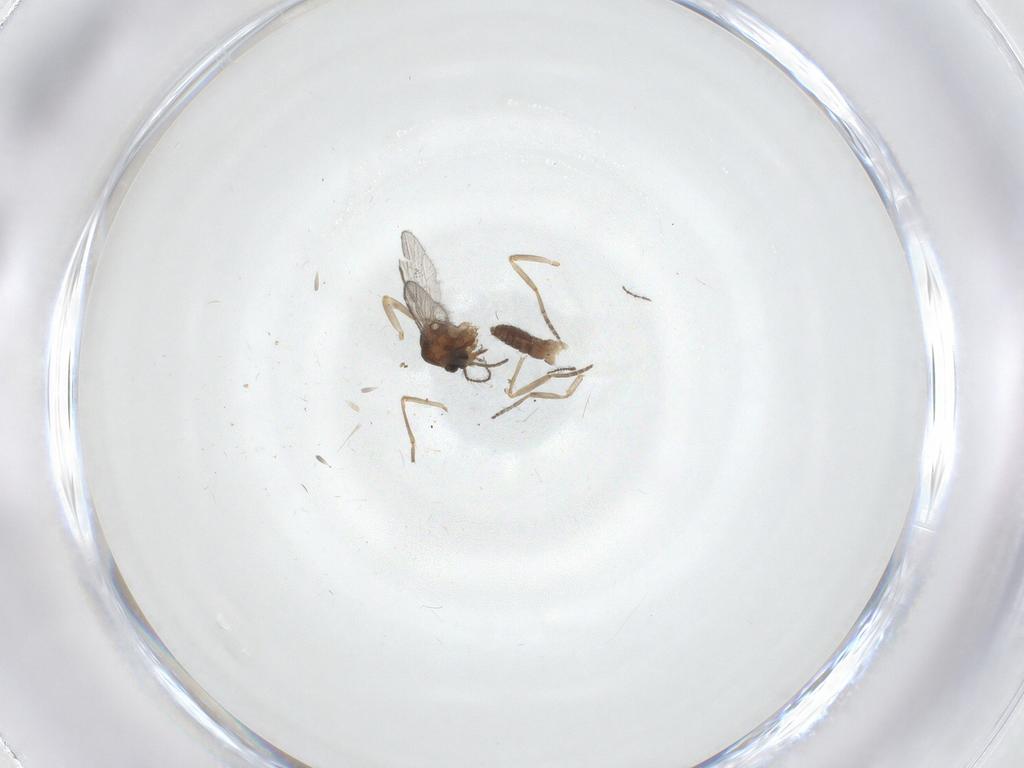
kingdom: Animalia
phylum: Arthropoda
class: Insecta
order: Diptera
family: Ceratopogonidae
